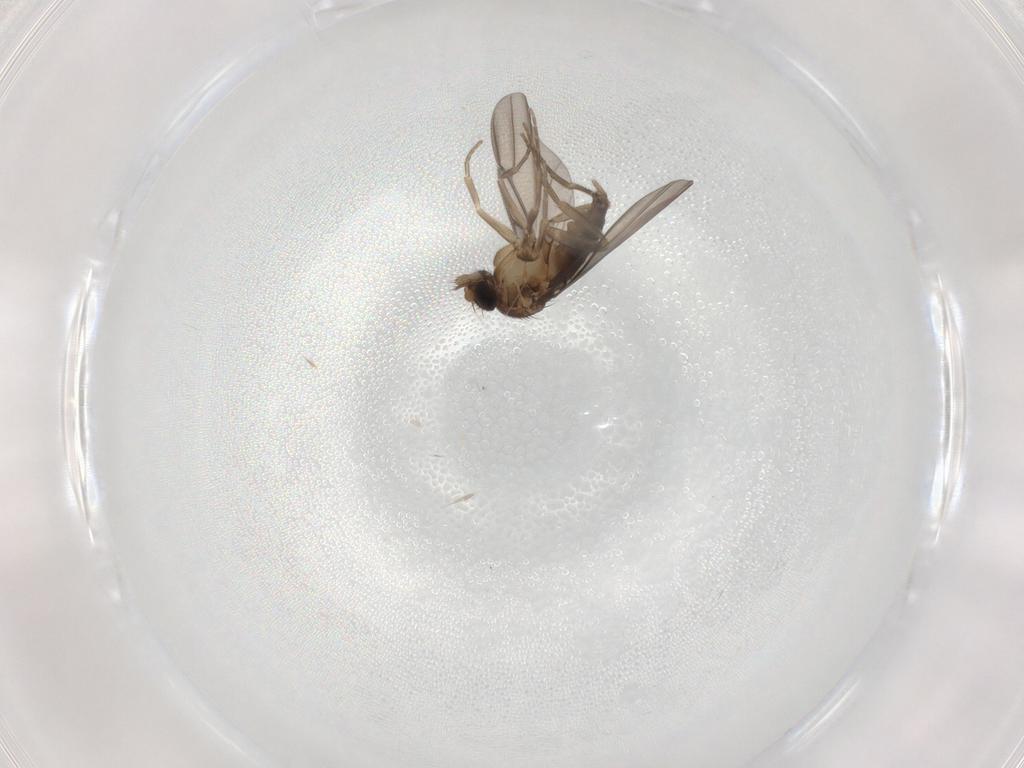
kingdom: Animalia
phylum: Arthropoda
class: Insecta
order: Diptera
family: Phoridae
